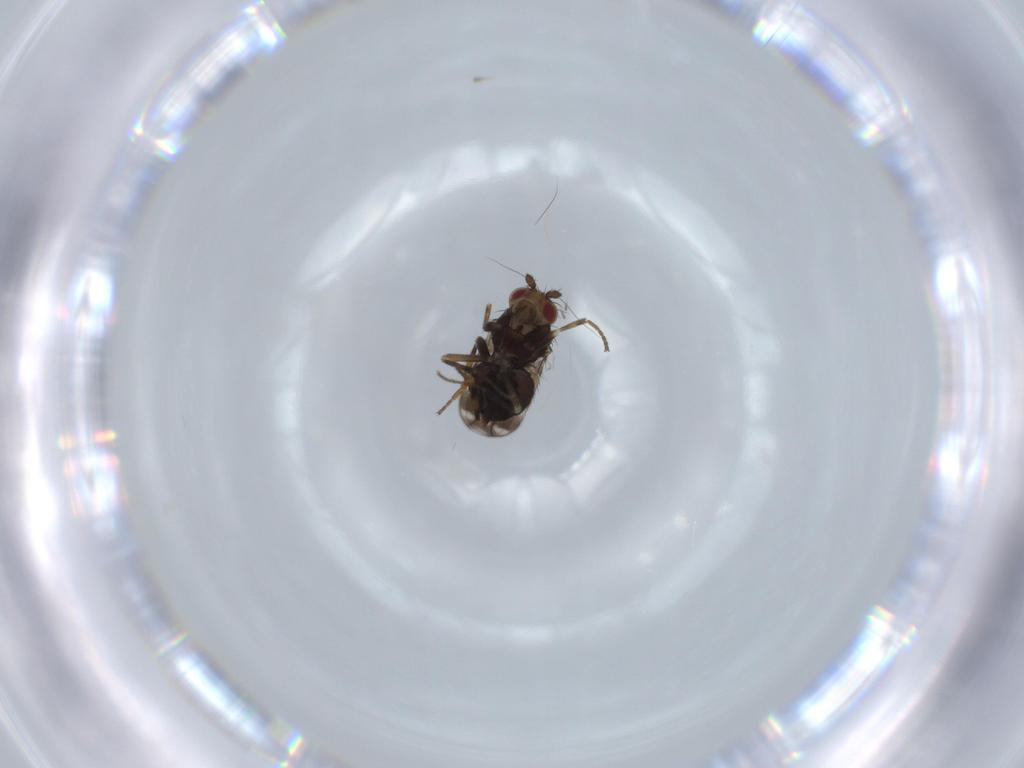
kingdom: Animalia
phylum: Arthropoda
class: Insecta
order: Diptera
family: Sphaeroceridae
